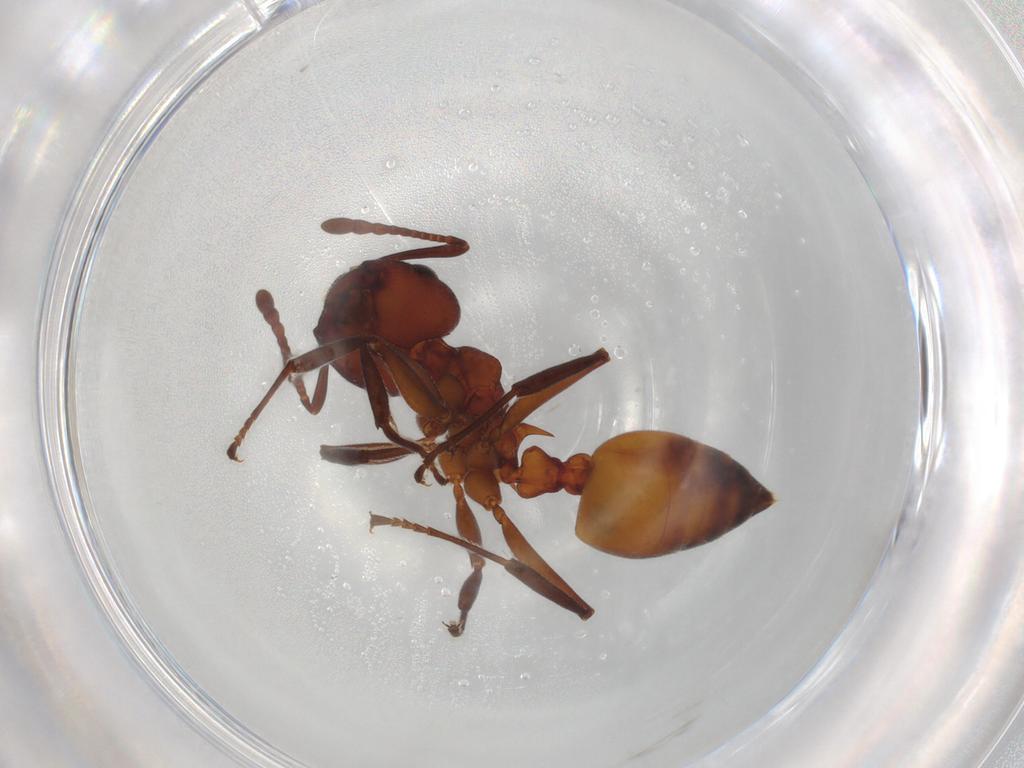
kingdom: Animalia
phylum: Arthropoda
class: Insecta
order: Hymenoptera
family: Formicidae
